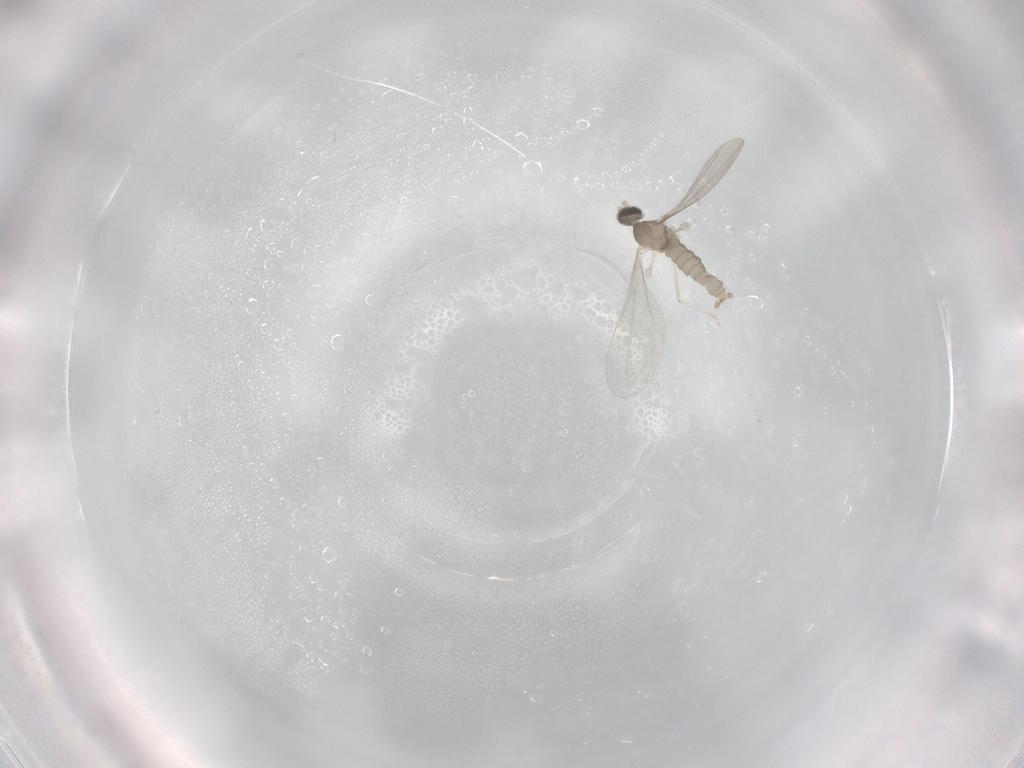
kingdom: Animalia
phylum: Arthropoda
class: Insecta
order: Diptera
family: Cecidomyiidae
